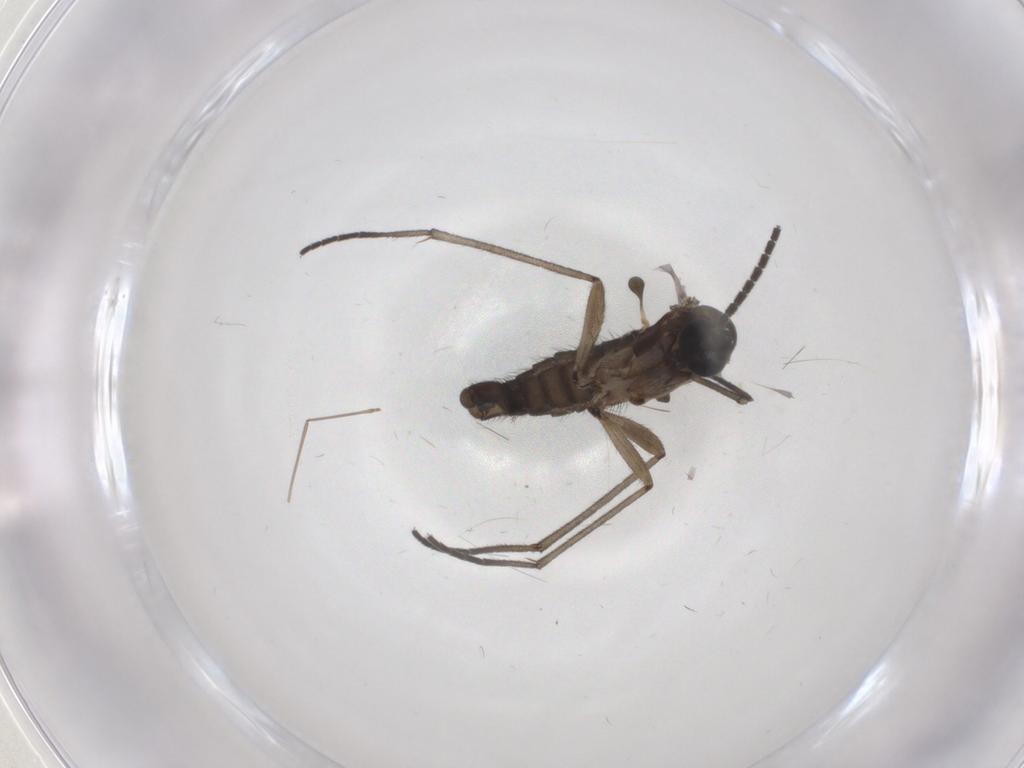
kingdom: Animalia
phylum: Arthropoda
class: Insecta
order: Diptera
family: Sciaridae
